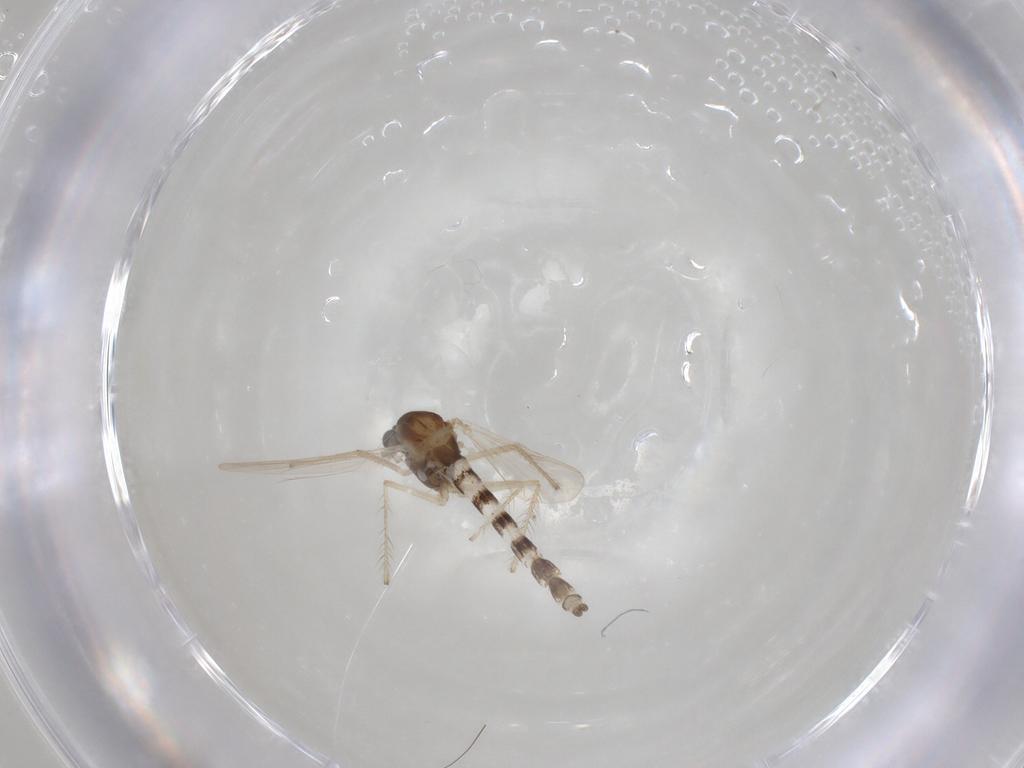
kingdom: Animalia
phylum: Arthropoda
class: Insecta
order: Diptera
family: Chironomidae
